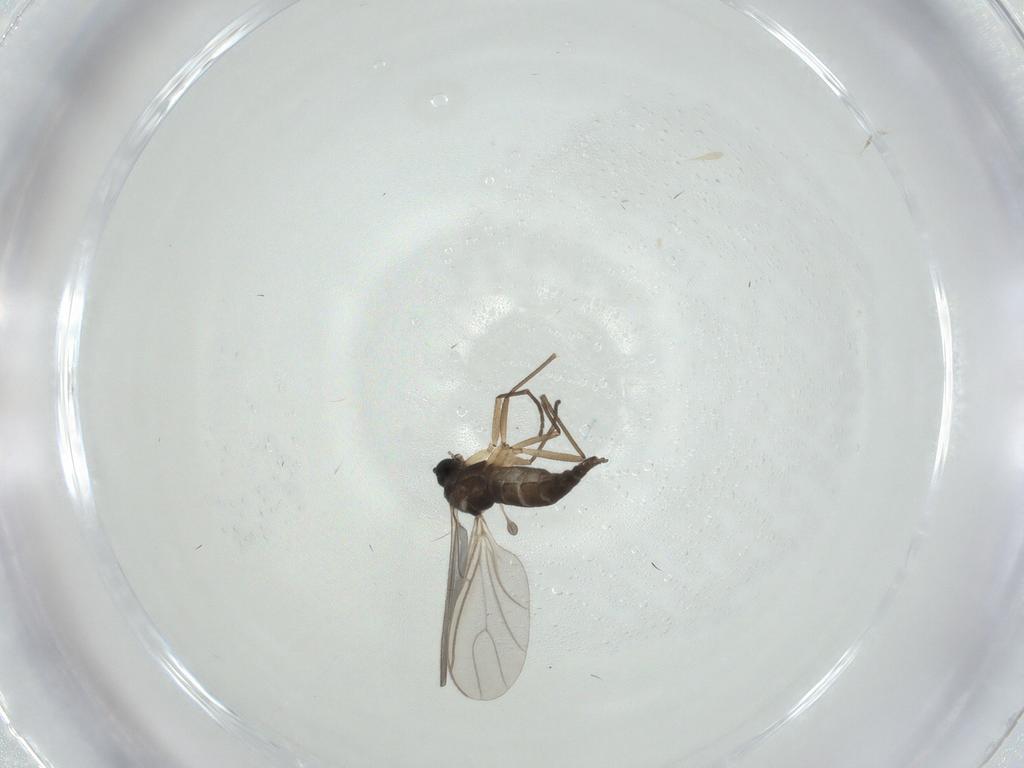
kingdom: Animalia
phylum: Arthropoda
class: Insecta
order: Diptera
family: Sciaridae
